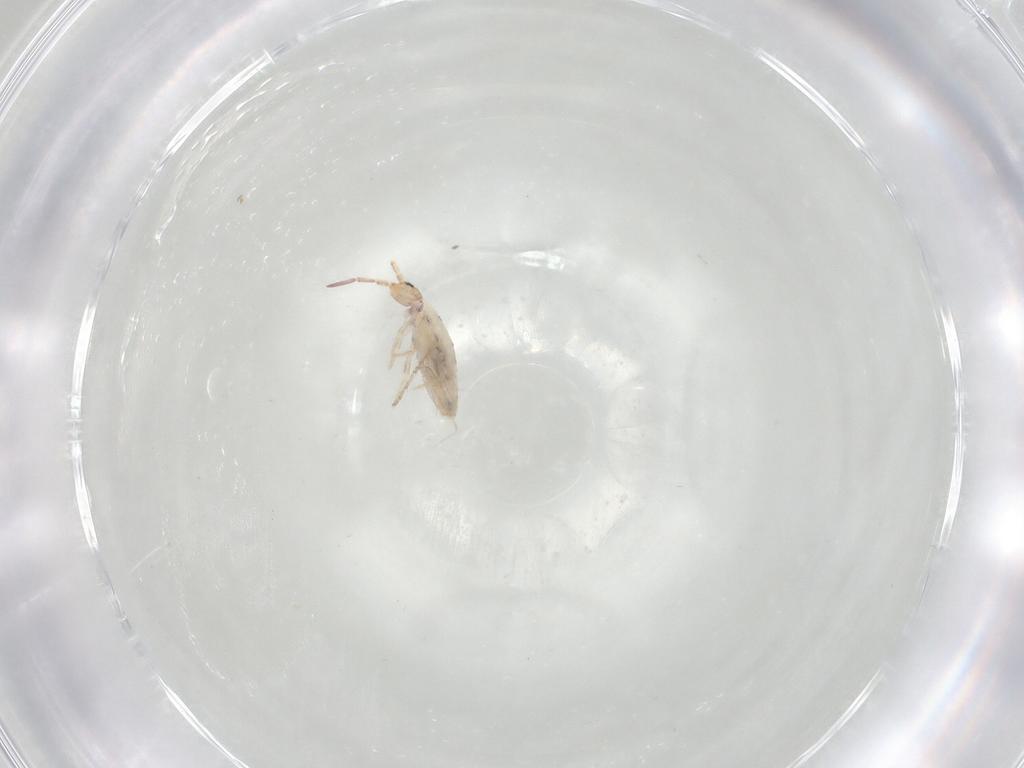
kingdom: Animalia
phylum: Arthropoda
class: Collembola
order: Entomobryomorpha
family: Entomobryidae
